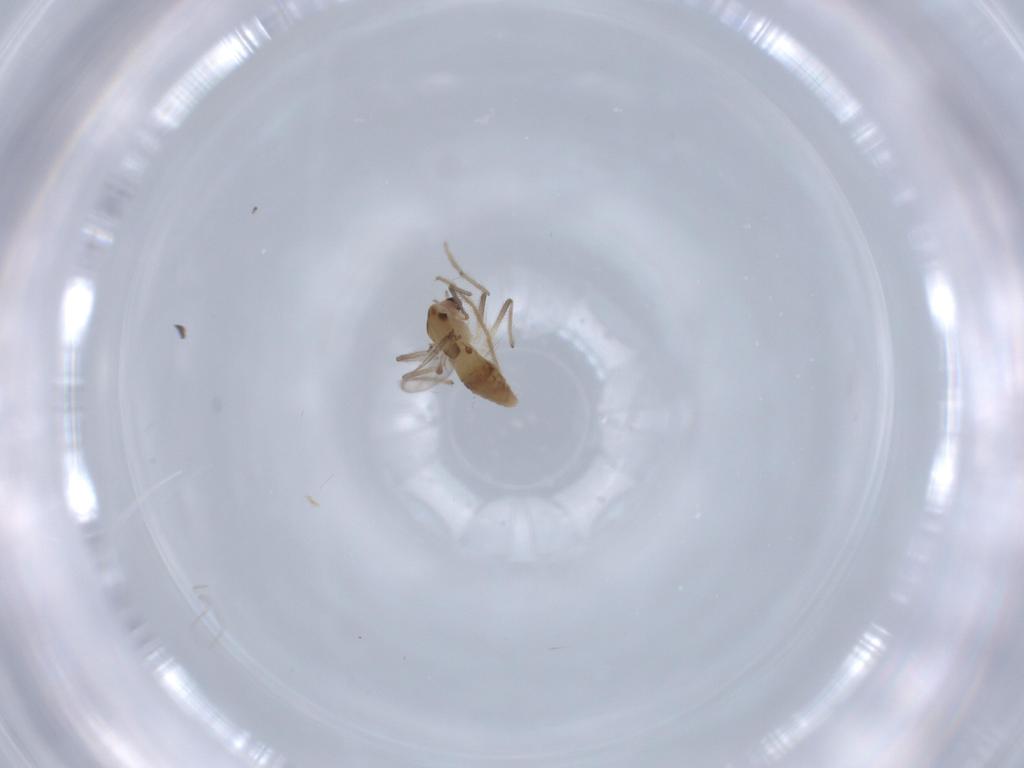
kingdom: Animalia
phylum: Arthropoda
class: Insecta
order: Diptera
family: Chironomidae
